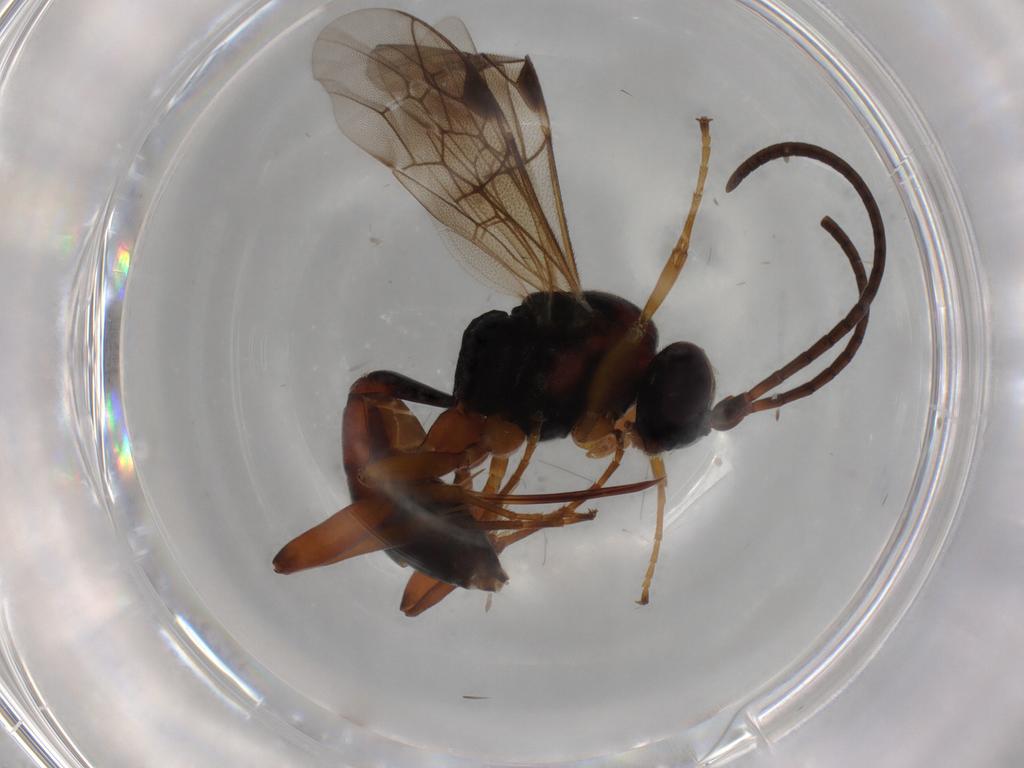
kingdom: Animalia
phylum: Arthropoda
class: Insecta
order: Hymenoptera
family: Ichneumonidae
